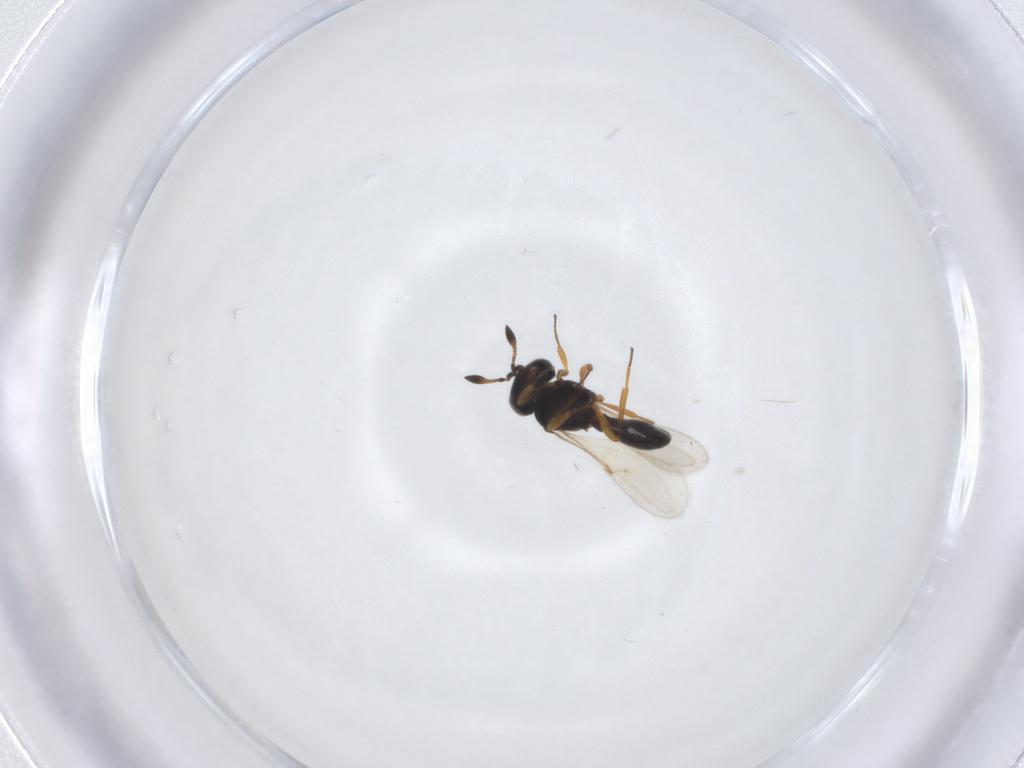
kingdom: Animalia
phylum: Arthropoda
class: Insecta
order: Hymenoptera
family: Scelionidae
